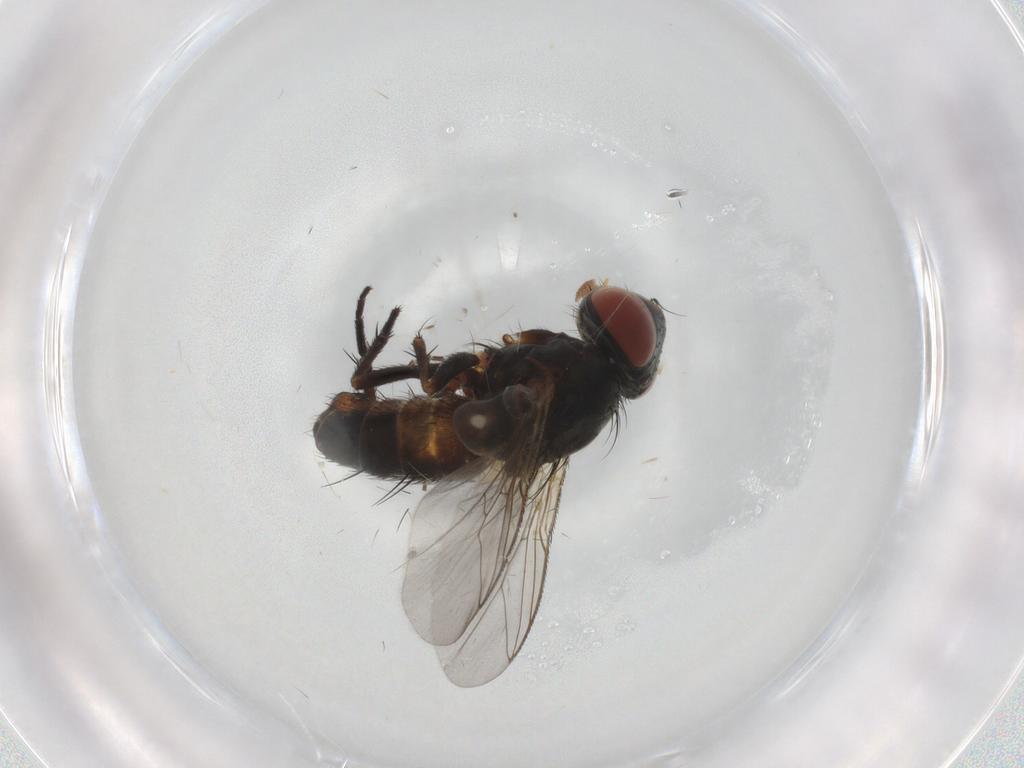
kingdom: Animalia
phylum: Arthropoda
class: Insecta
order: Diptera
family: Sarcophagidae
